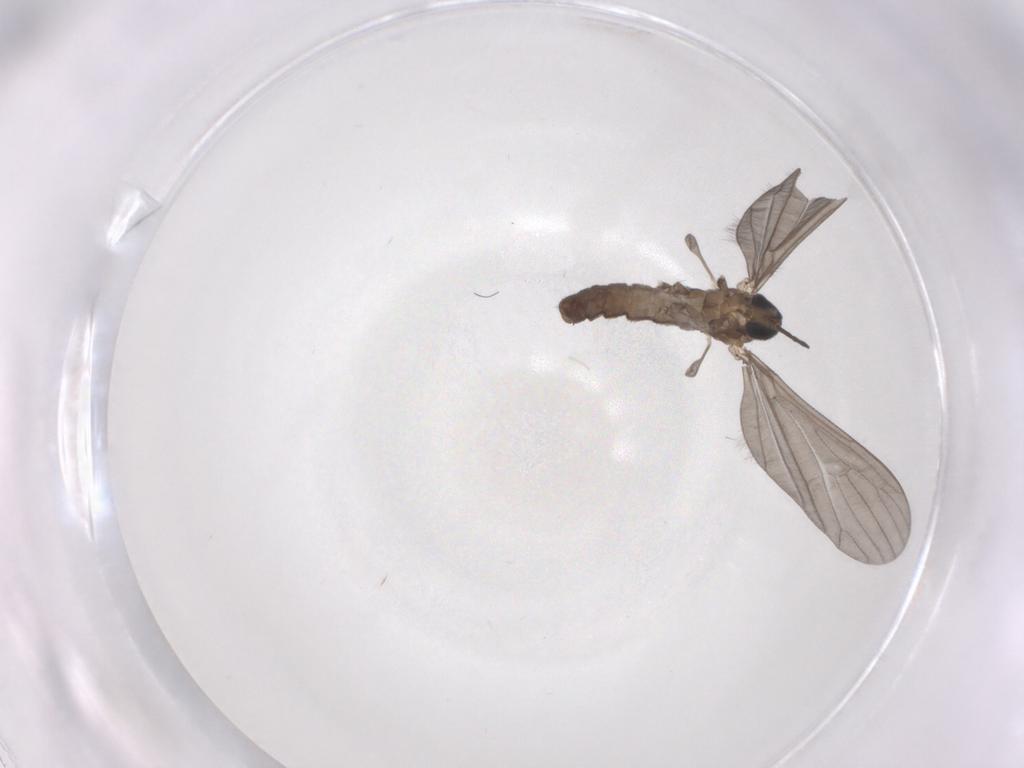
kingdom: Animalia
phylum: Arthropoda
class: Insecta
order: Diptera
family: Limoniidae
